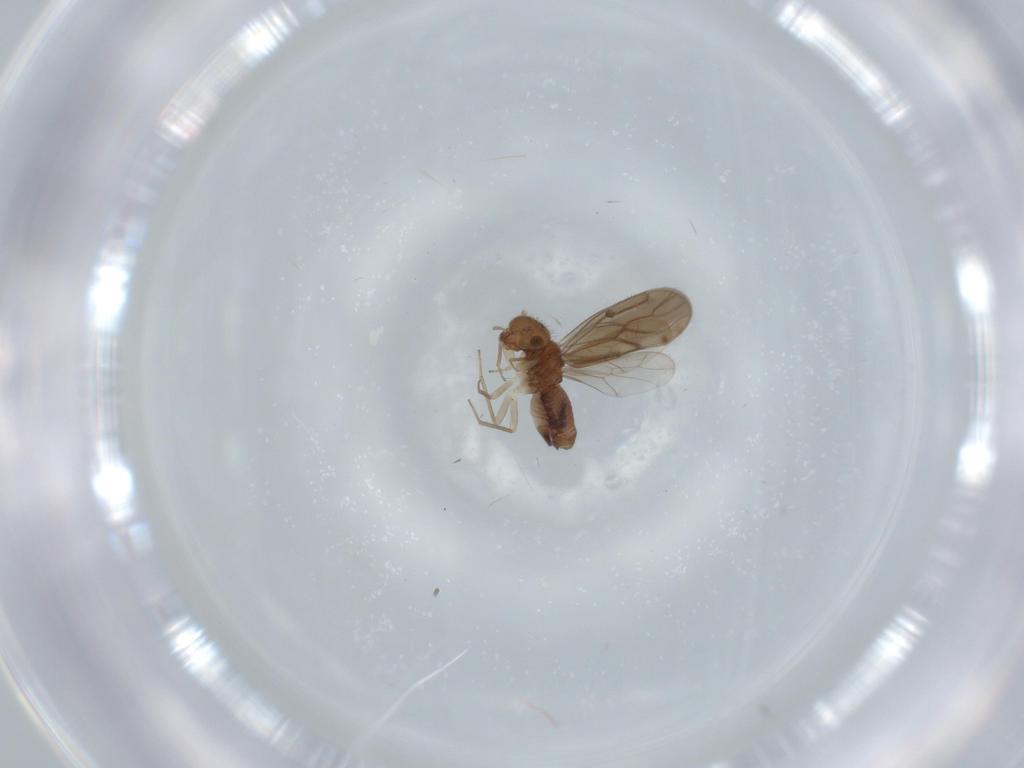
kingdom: Animalia
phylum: Arthropoda
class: Insecta
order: Psocodea
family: Ectopsocidae
